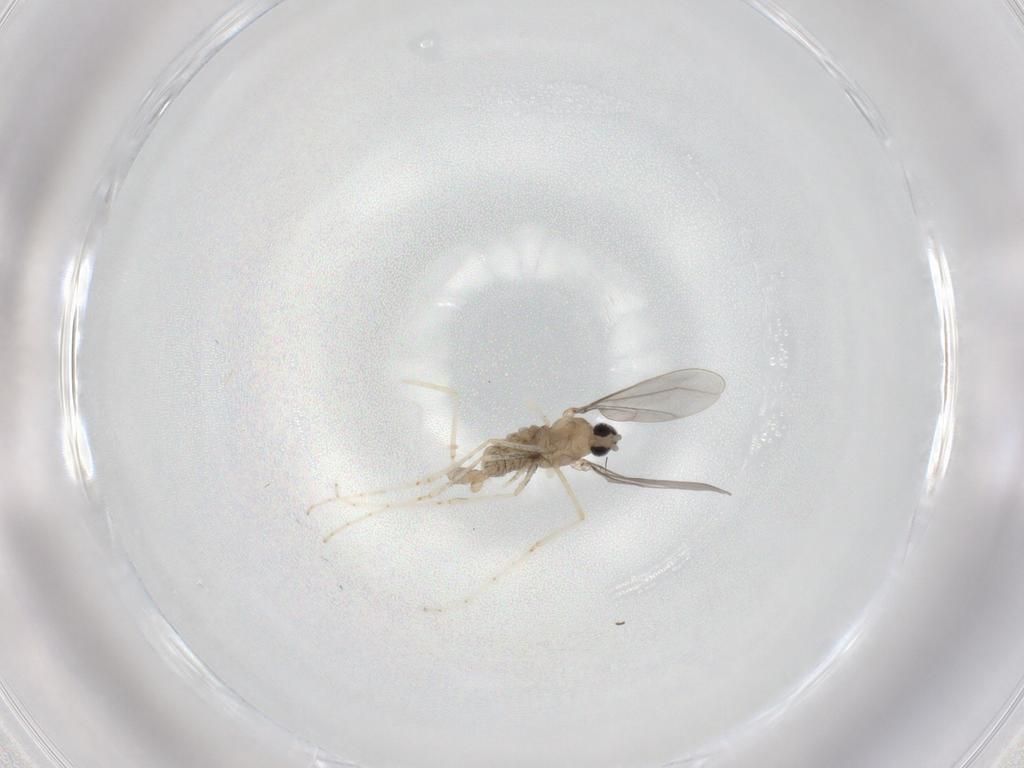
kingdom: Animalia
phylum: Arthropoda
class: Insecta
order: Diptera
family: Cecidomyiidae
